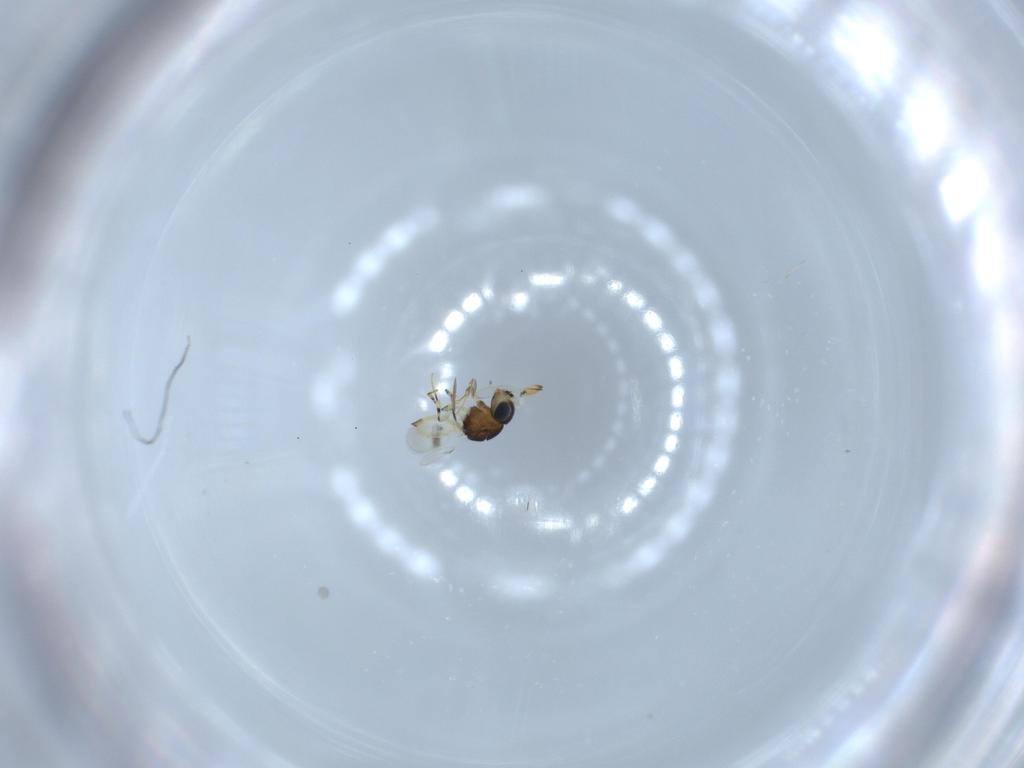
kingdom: Animalia
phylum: Arthropoda
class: Insecta
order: Hymenoptera
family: Scelionidae
